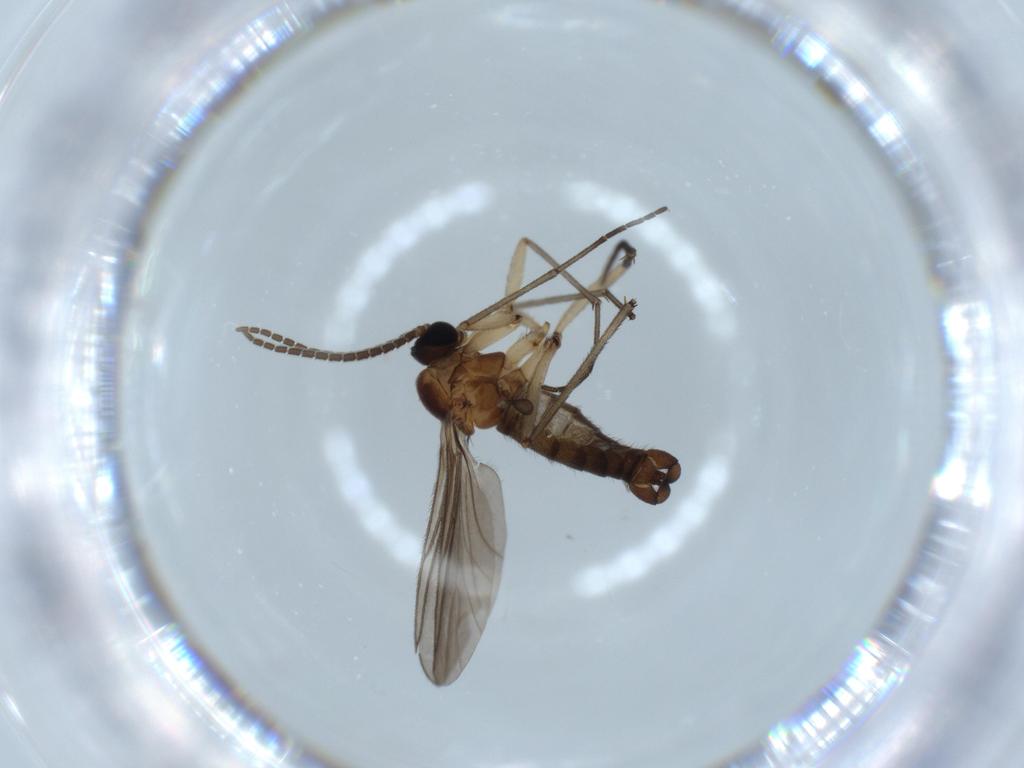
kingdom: Animalia
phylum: Arthropoda
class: Insecta
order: Diptera
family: Sciaridae
